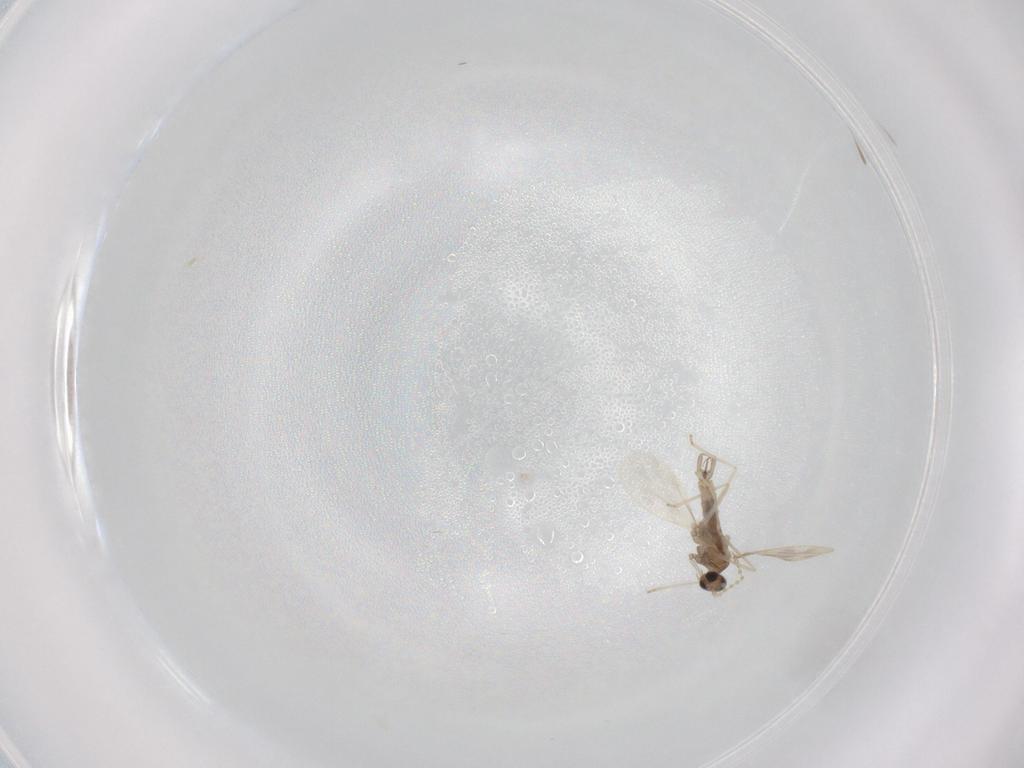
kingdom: Animalia
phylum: Arthropoda
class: Insecta
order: Diptera
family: Cecidomyiidae
